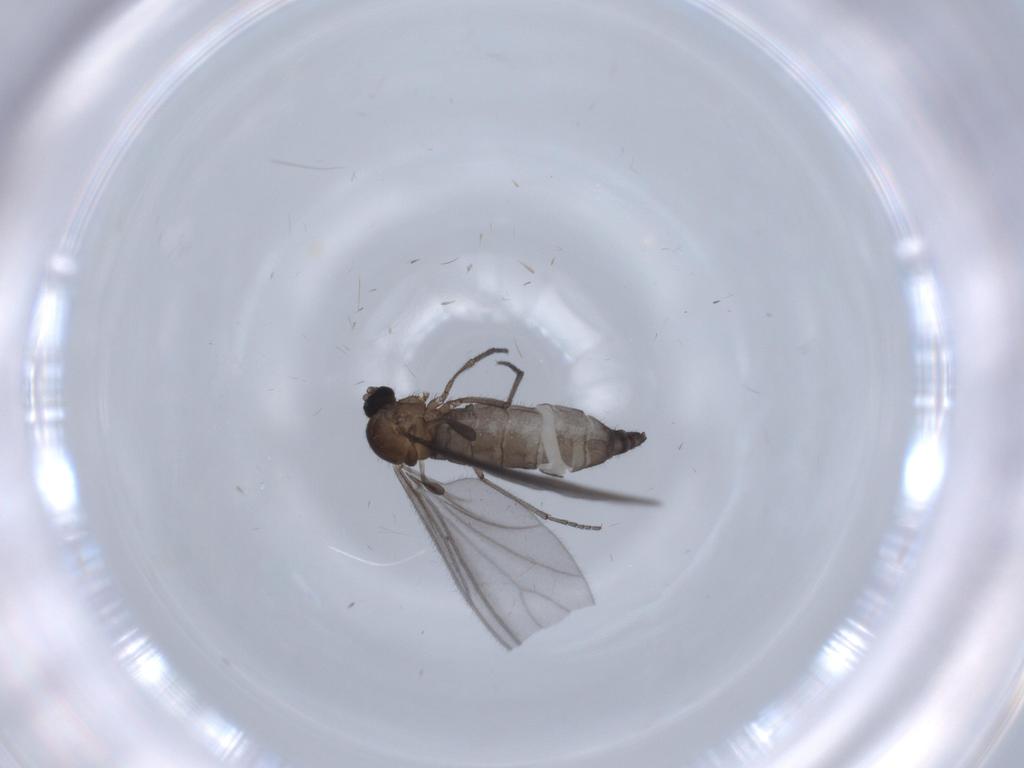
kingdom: Animalia
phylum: Arthropoda
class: Insecta
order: Diptera
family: Sciaridae
